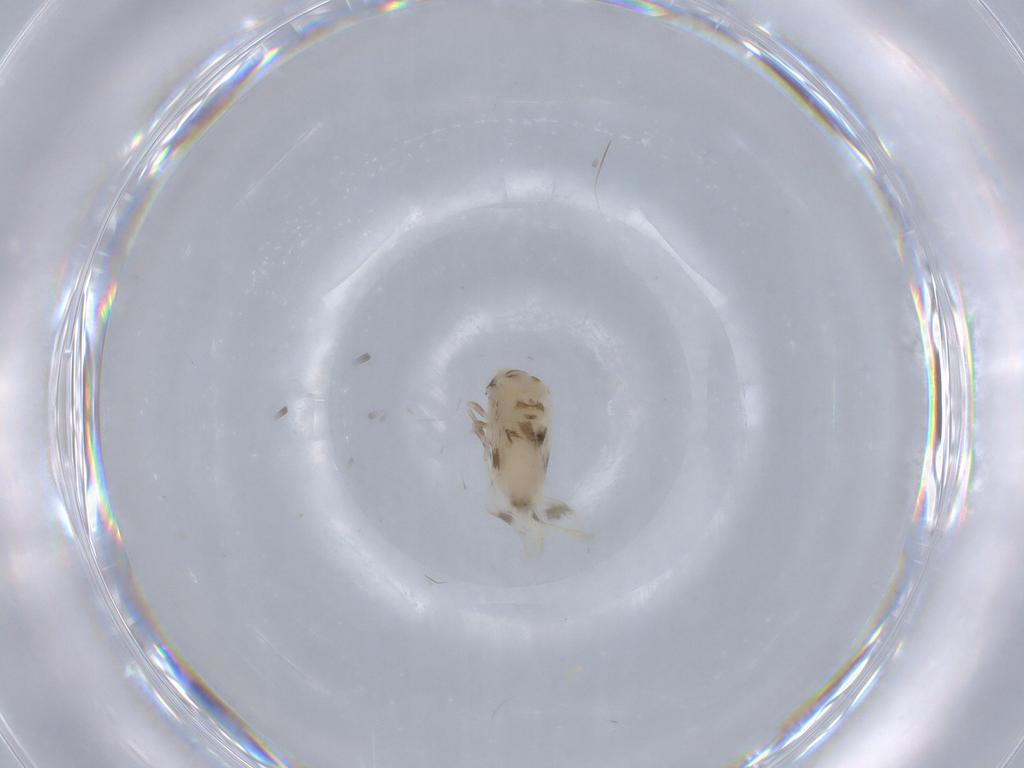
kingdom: Animalia
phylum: Arthropoda
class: Insecta
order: Hemiptera
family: Aleyrodidae
